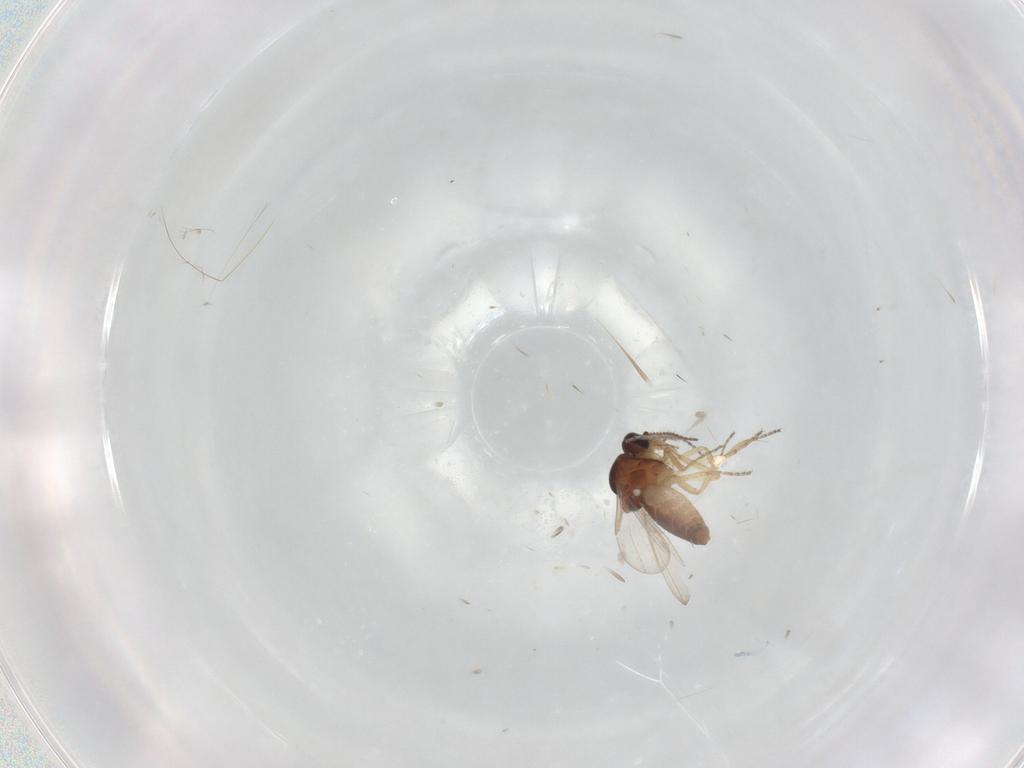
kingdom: Animalia
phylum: Arthropoda
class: Insecta
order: Diptera
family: Ceratopogonidae
